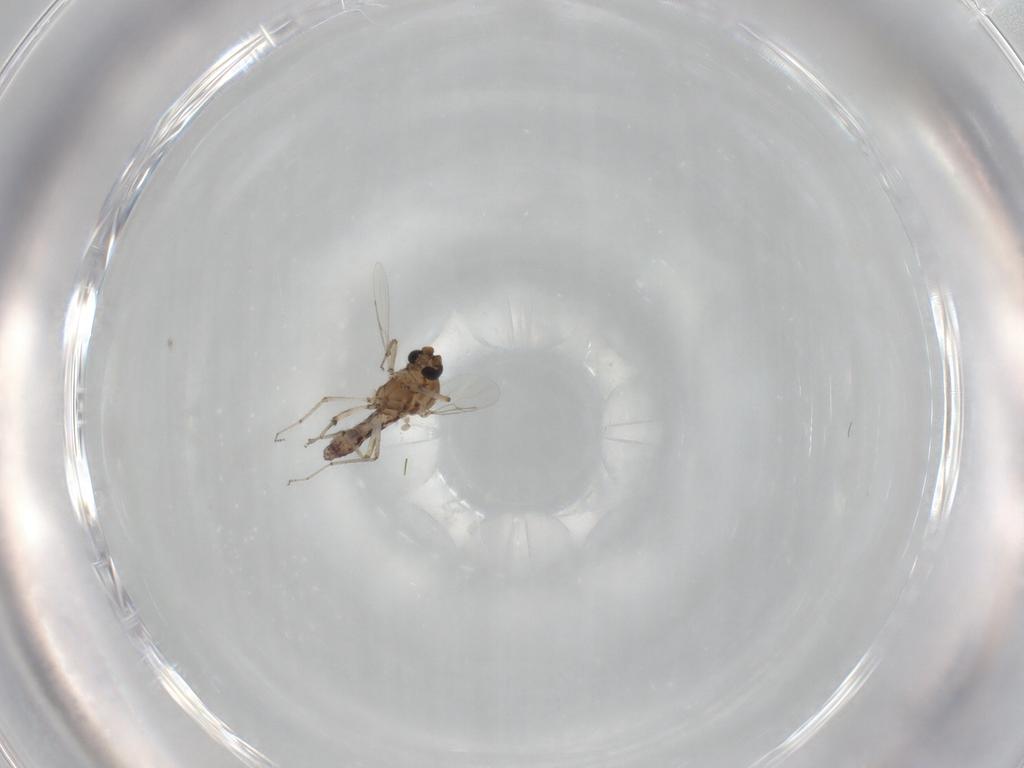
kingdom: Animalia
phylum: Arthropoda
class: Insecta
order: Diptera
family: Ceratopogonidae
